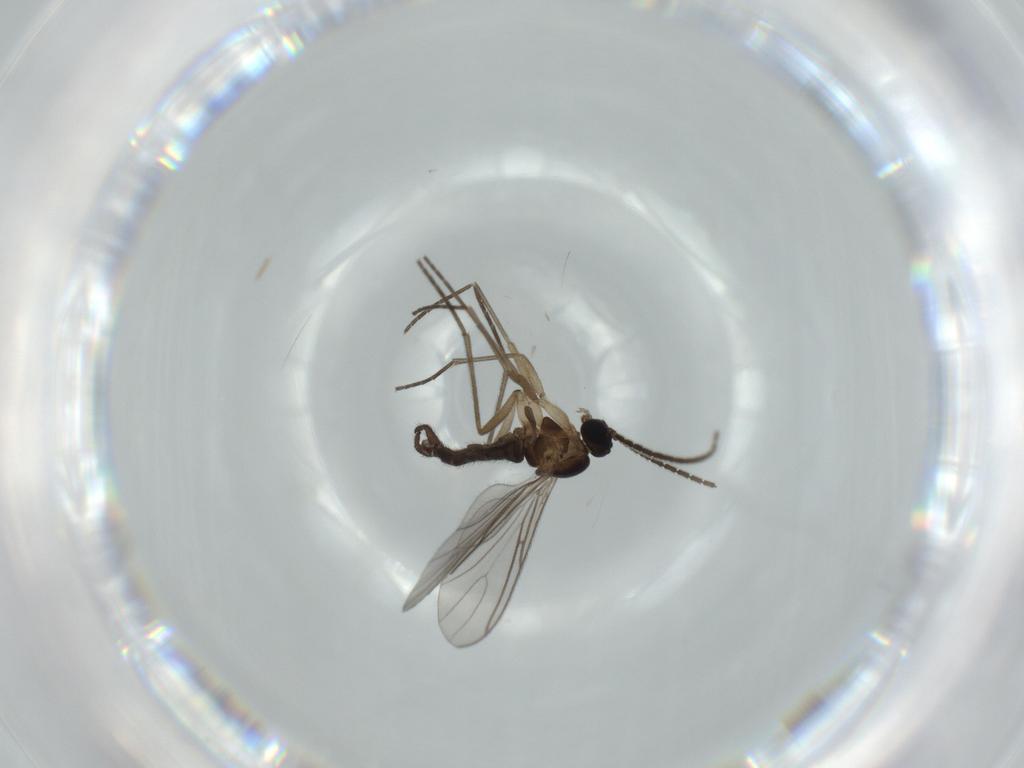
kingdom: Animalia
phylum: Arthropoda
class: Insecta
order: Diptera
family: Sciaridae
